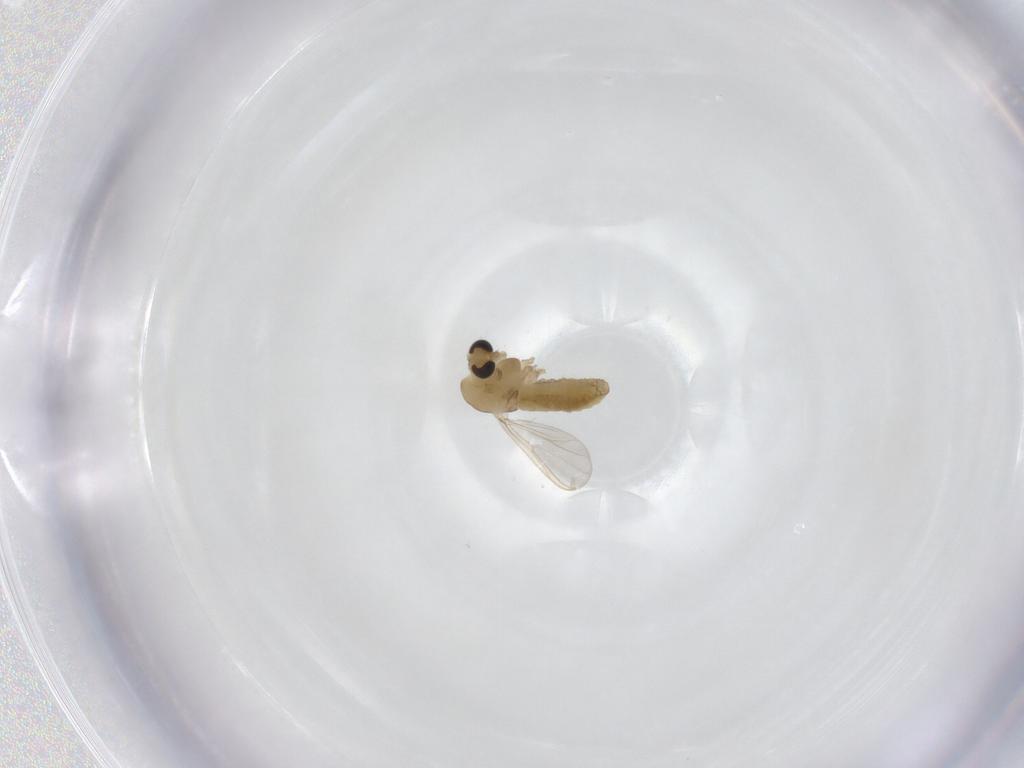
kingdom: Animalia
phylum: Arthropoda
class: Insecta
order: Diptera
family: Chironomidae
